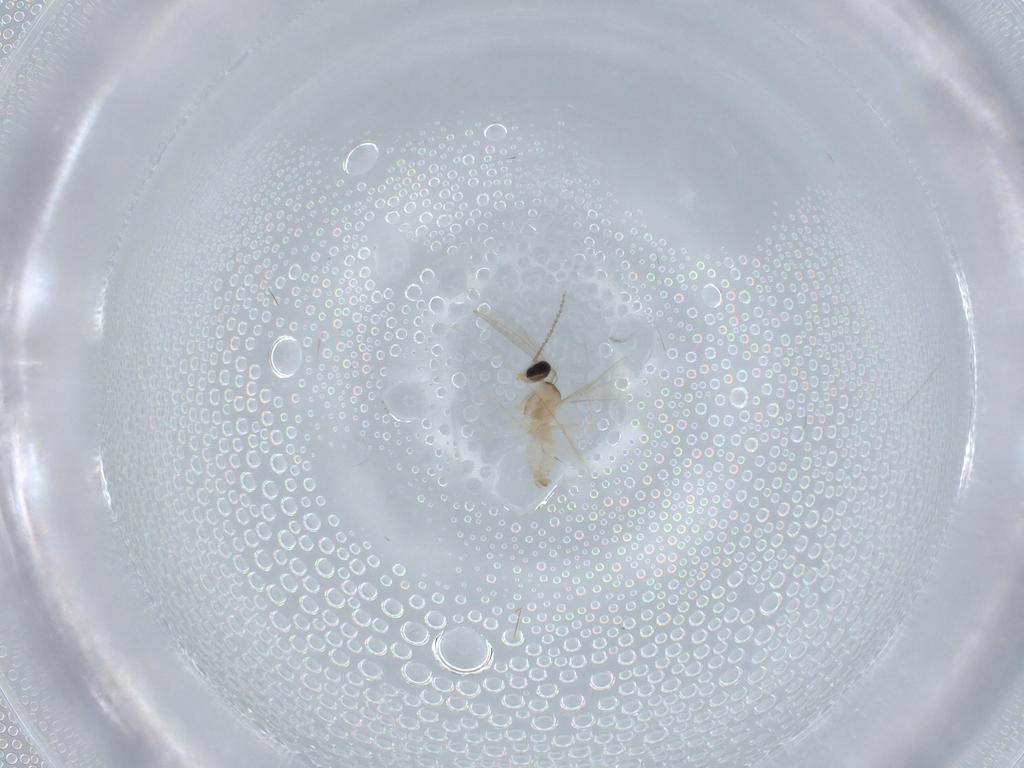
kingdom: Animalia
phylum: Arthropoda
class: Insecta
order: Diptera
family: Cecidomyiidae
